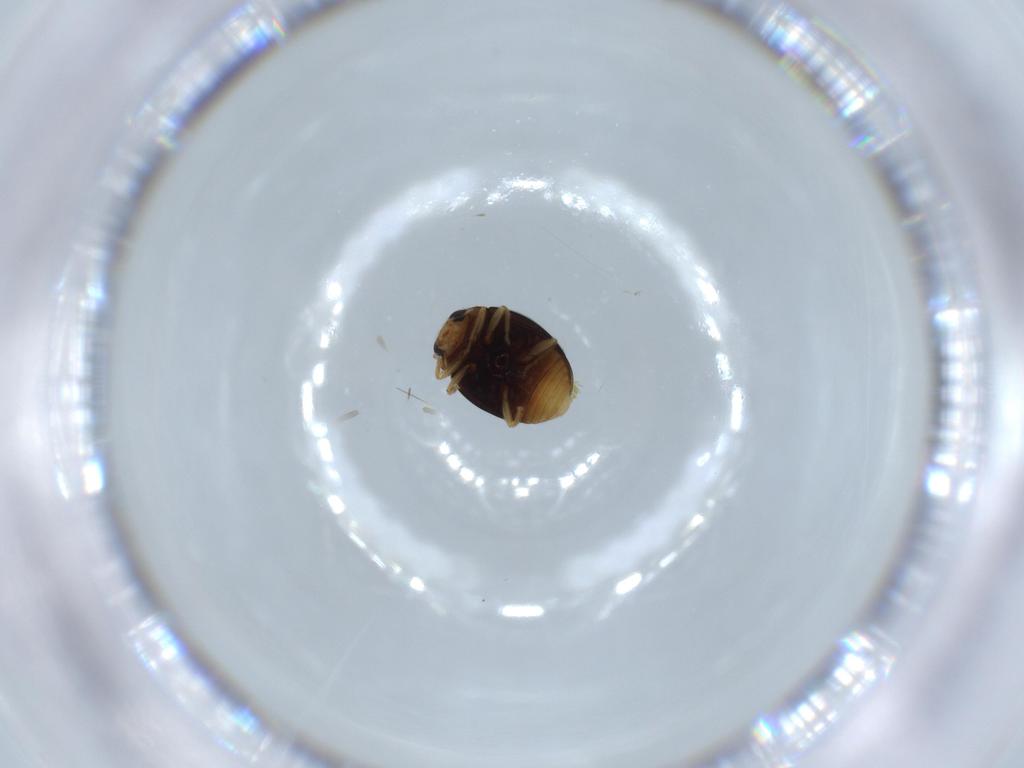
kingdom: Animalia
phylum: Arthropoda
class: Insecta
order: Coleoptera
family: Coccinellidae
